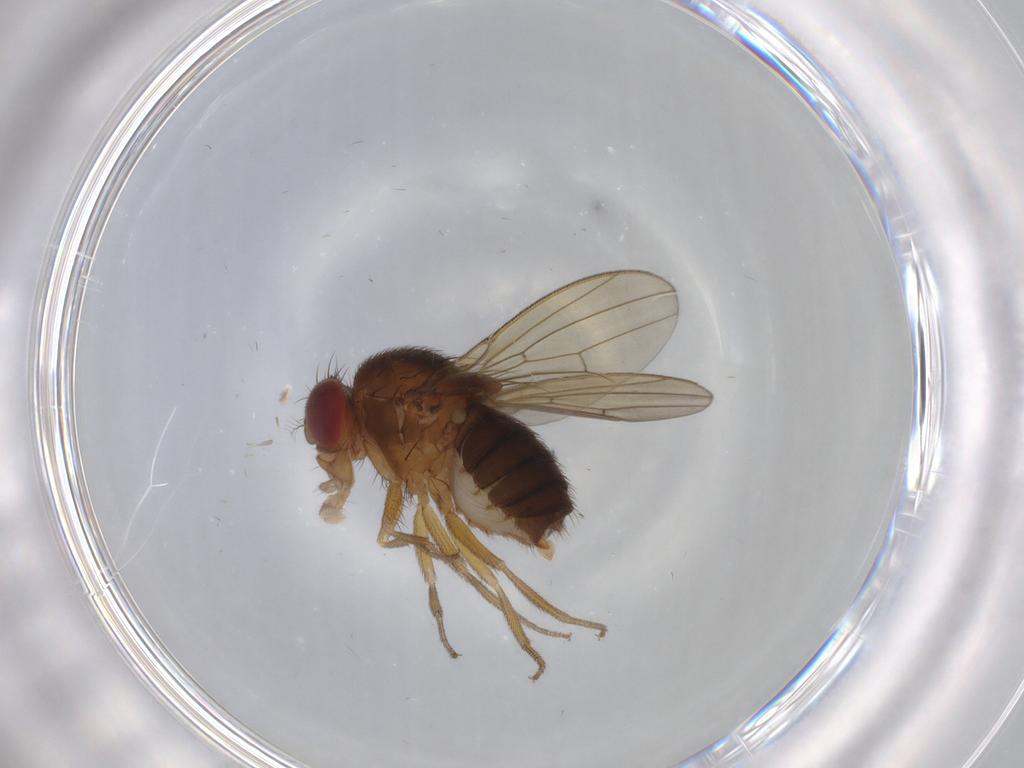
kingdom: Animalia
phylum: Arthropoda
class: Insecta
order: Diptera
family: Drosophilidae
